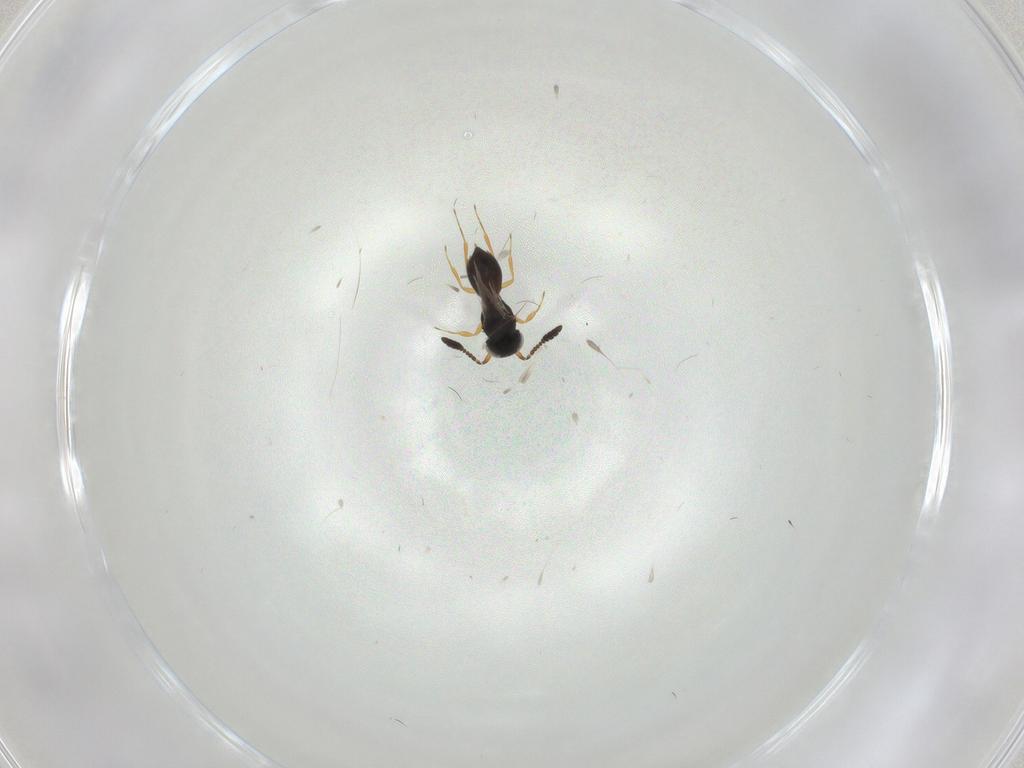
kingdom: Animalia
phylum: Arthropoda
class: Insecta
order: Hymenoptera
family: Scelionidae
